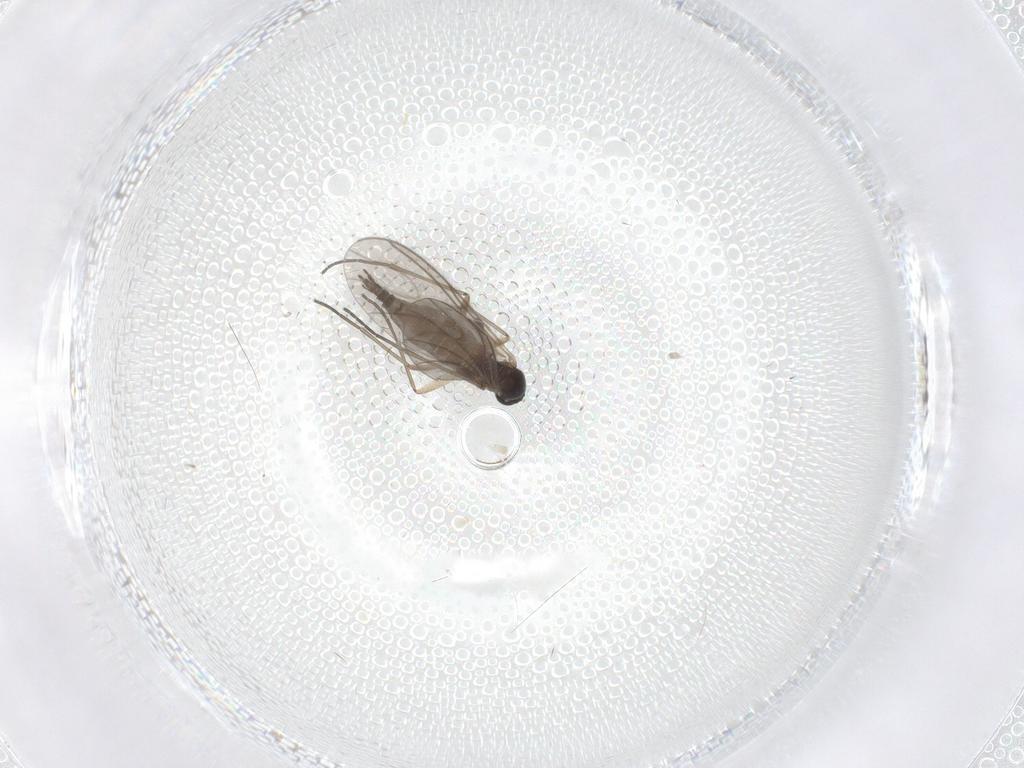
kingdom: Animalia
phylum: Arthropoda
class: Insecta
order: Diptera
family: Sciaridae
